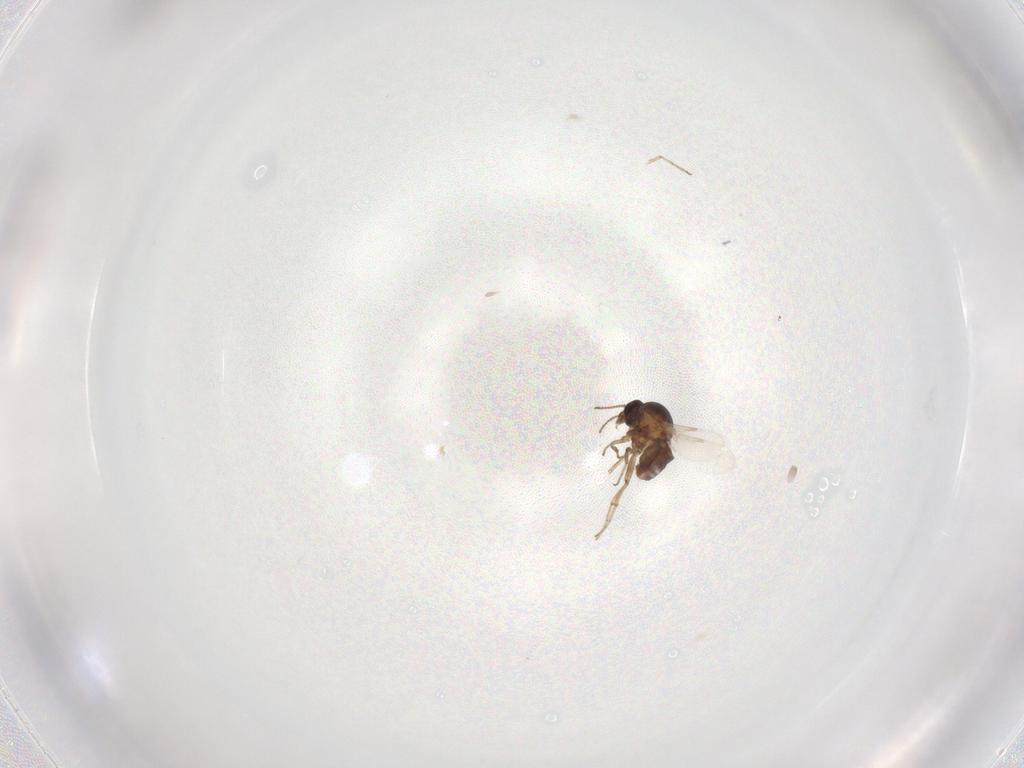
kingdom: Animalia
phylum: Arthropoda
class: Insecta
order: Diptera
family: Ceratopogonidae
